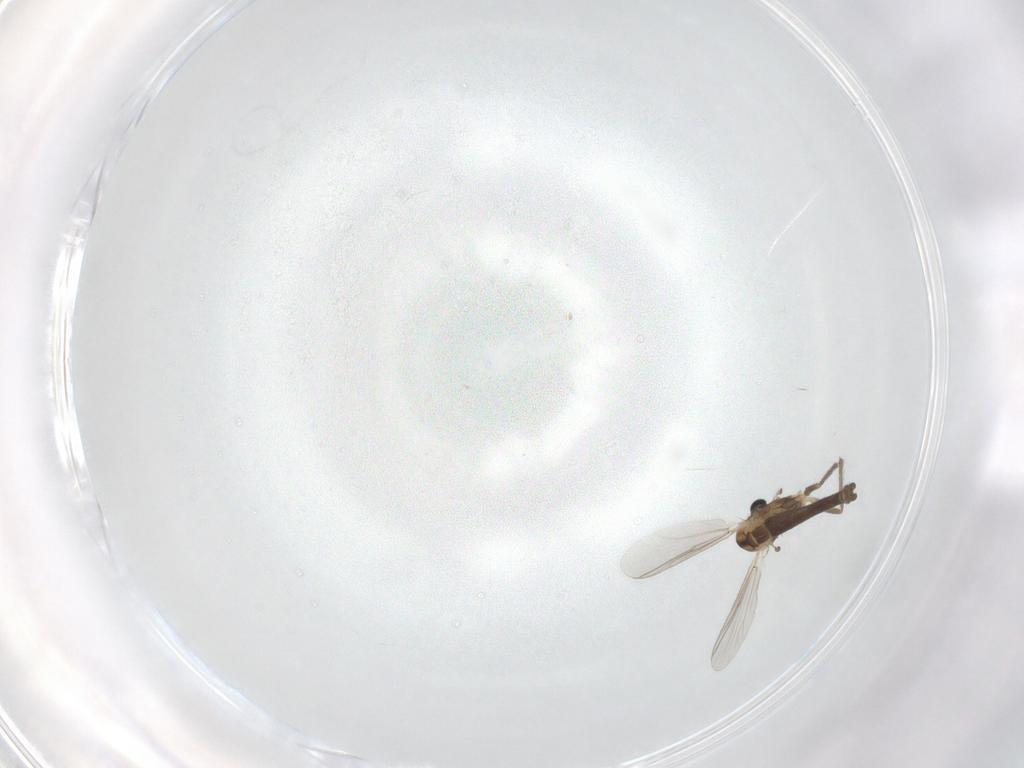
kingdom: Animalia
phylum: Arthropoda
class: Insecta
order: Diptera
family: Chironomidae
